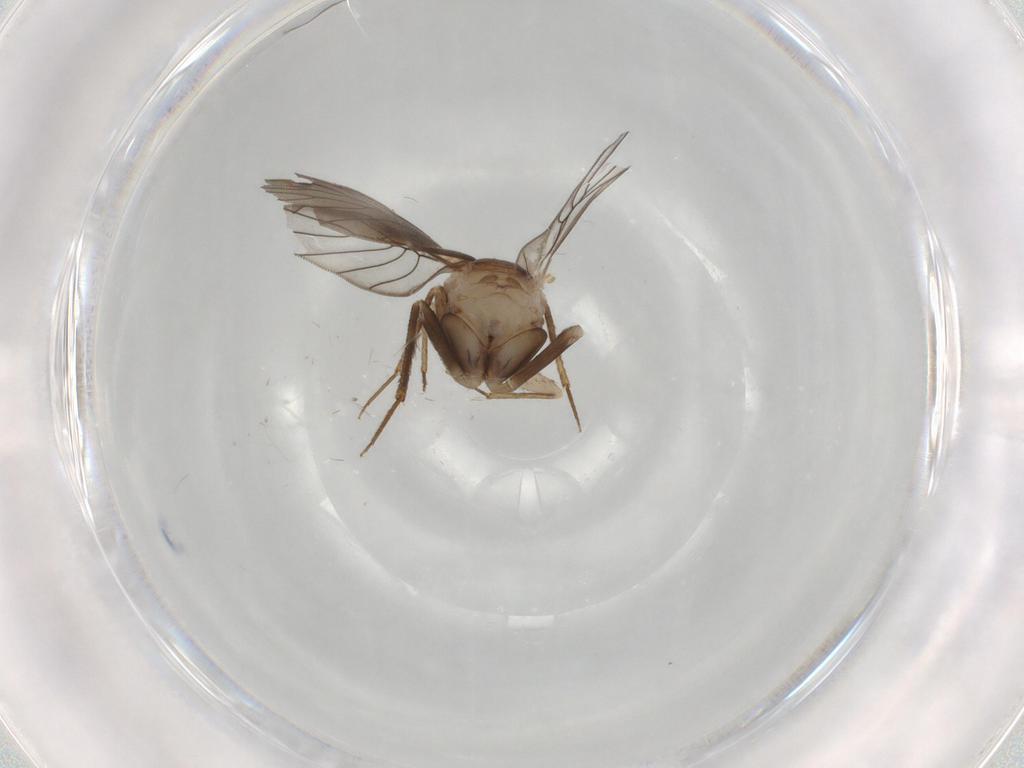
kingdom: Animalia
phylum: Arthropoda
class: Insecta
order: Psocodea
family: Lepidopsocidae
